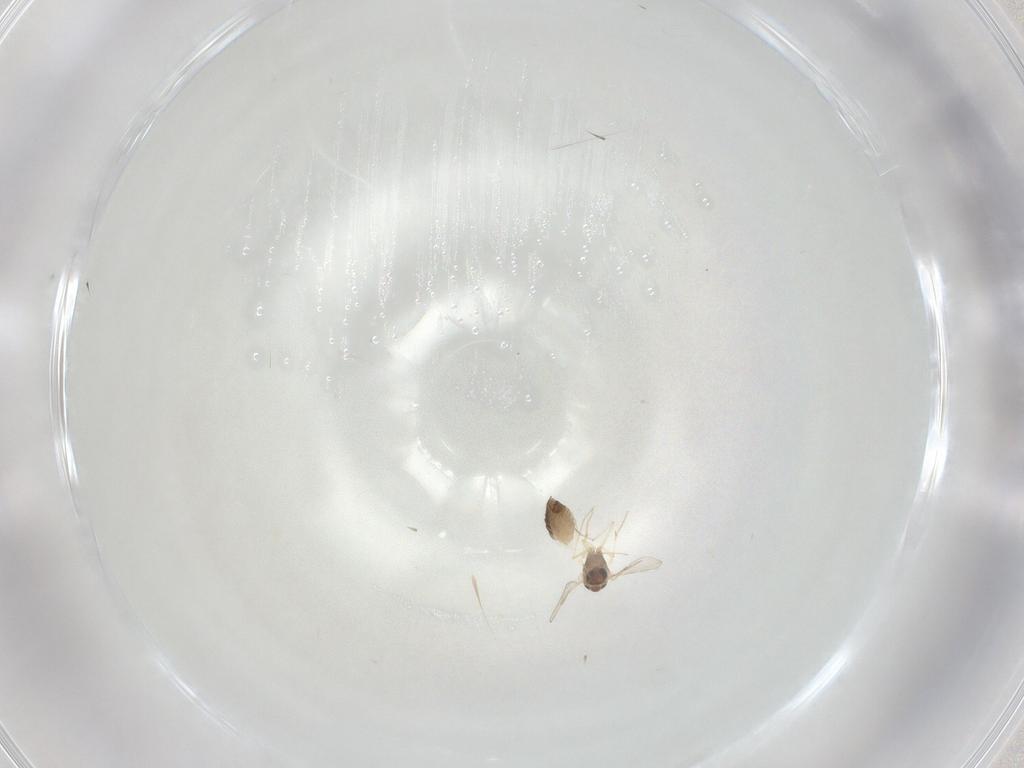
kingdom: Animalia
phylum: Arthropoda
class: Insecta
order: Diptera
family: Chironomidae
